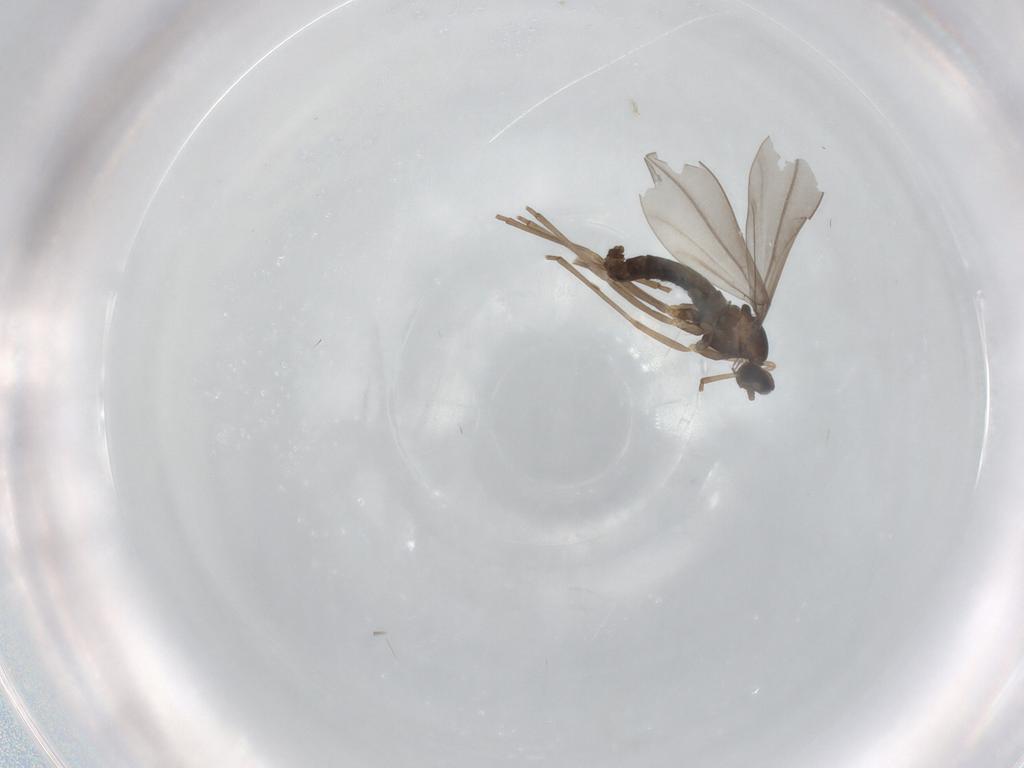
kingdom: Animalia
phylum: Arthropoda
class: Insecta
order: Diptera
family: Cecidomyiidae
